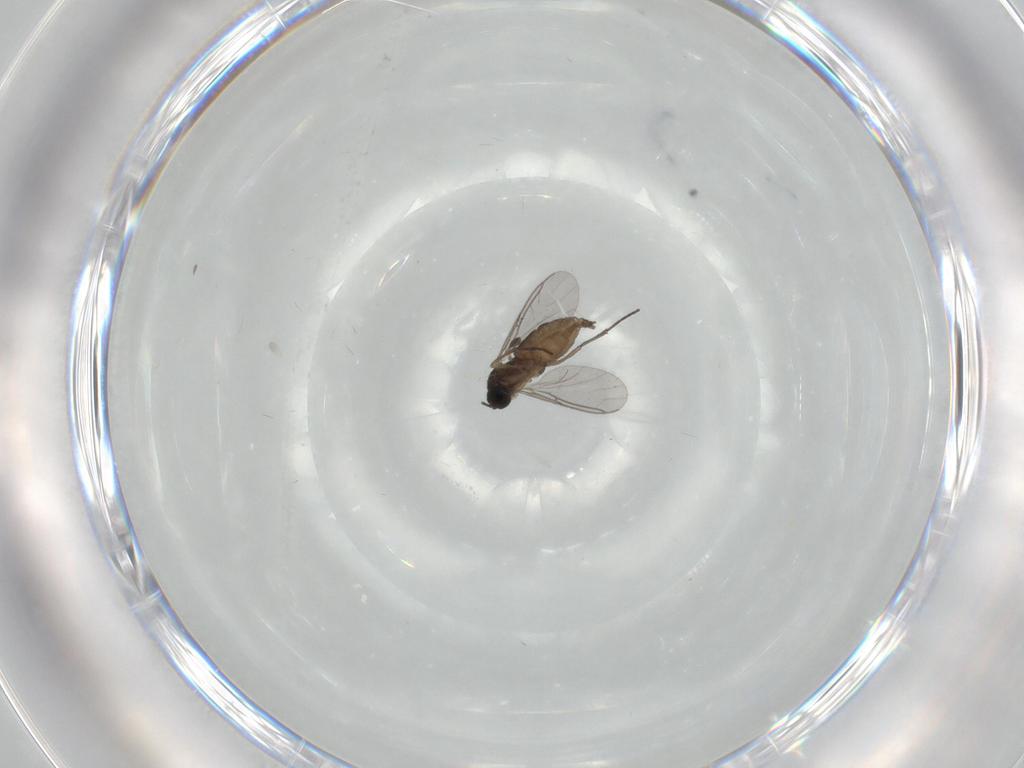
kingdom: Animalia
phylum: Arthropoda
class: Insecta
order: Diptera
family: Sciaridae
